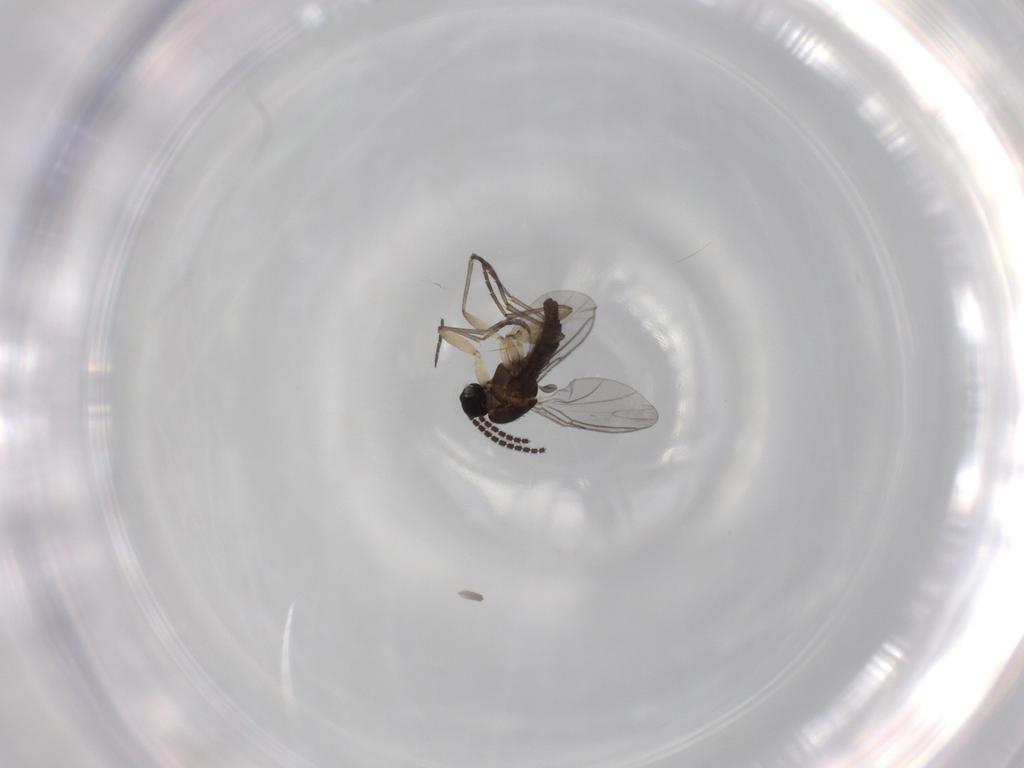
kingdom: Animalia
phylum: Arthropoda
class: Insecta
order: Diptera
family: Sciaridae
